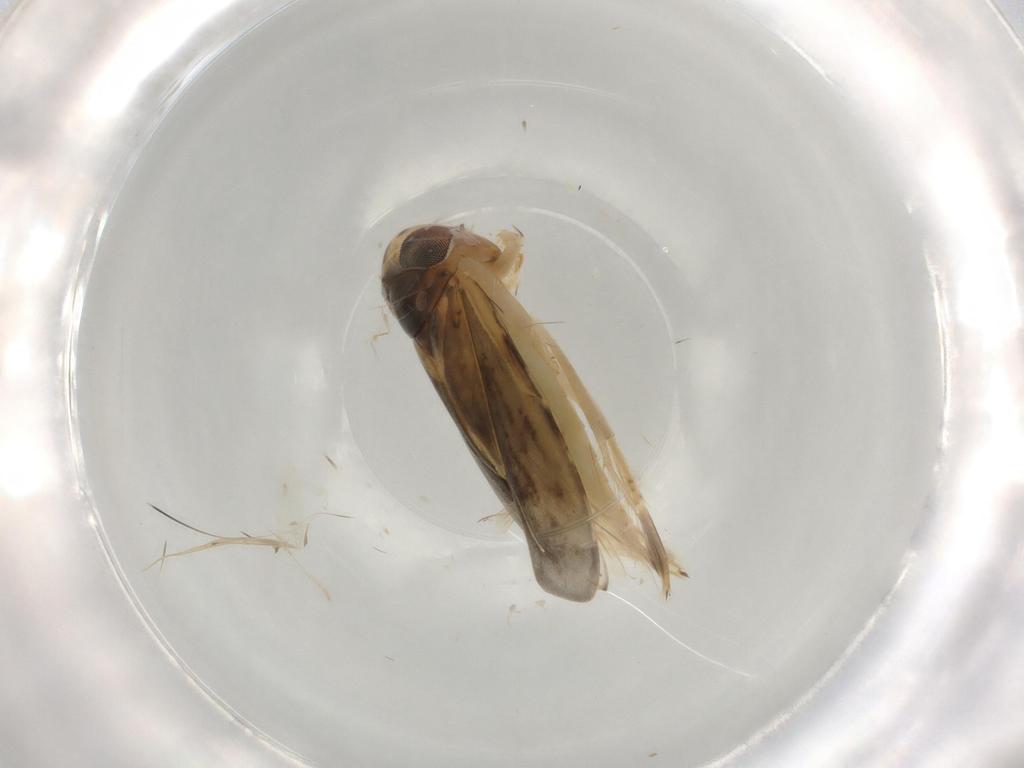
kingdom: Animalia
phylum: Arthropoda
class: Insecta
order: Hemiptera
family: Corixidae
